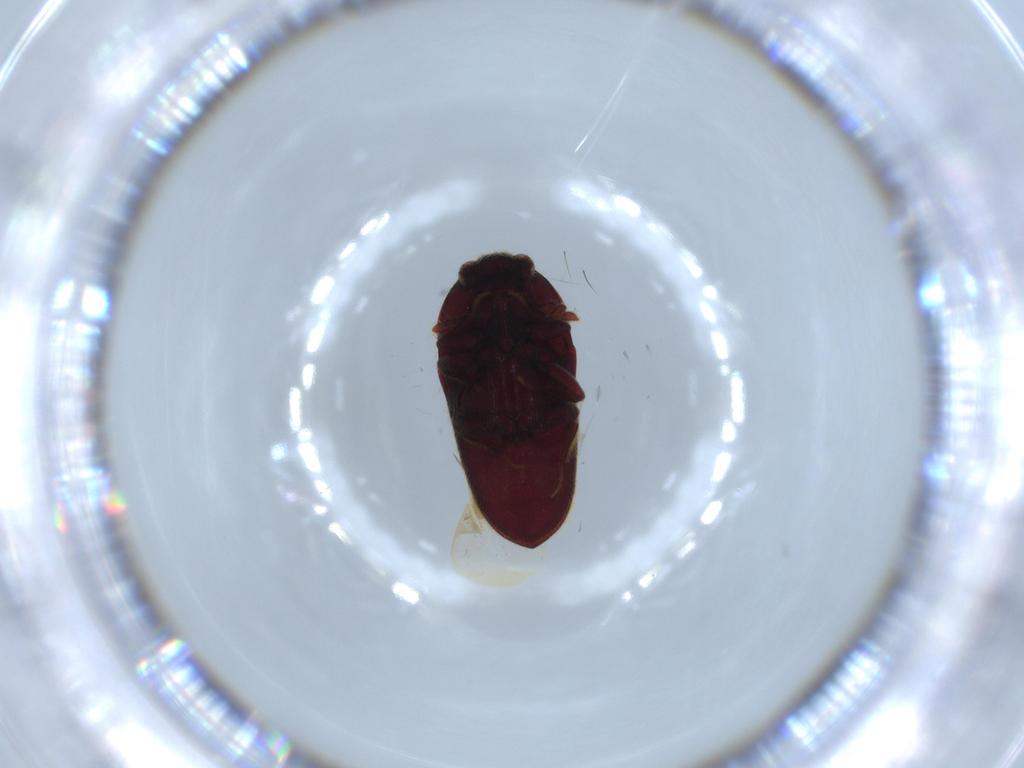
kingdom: Animalia
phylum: Arthropoda
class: Insecta
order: Coleoptera
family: Throscidae
